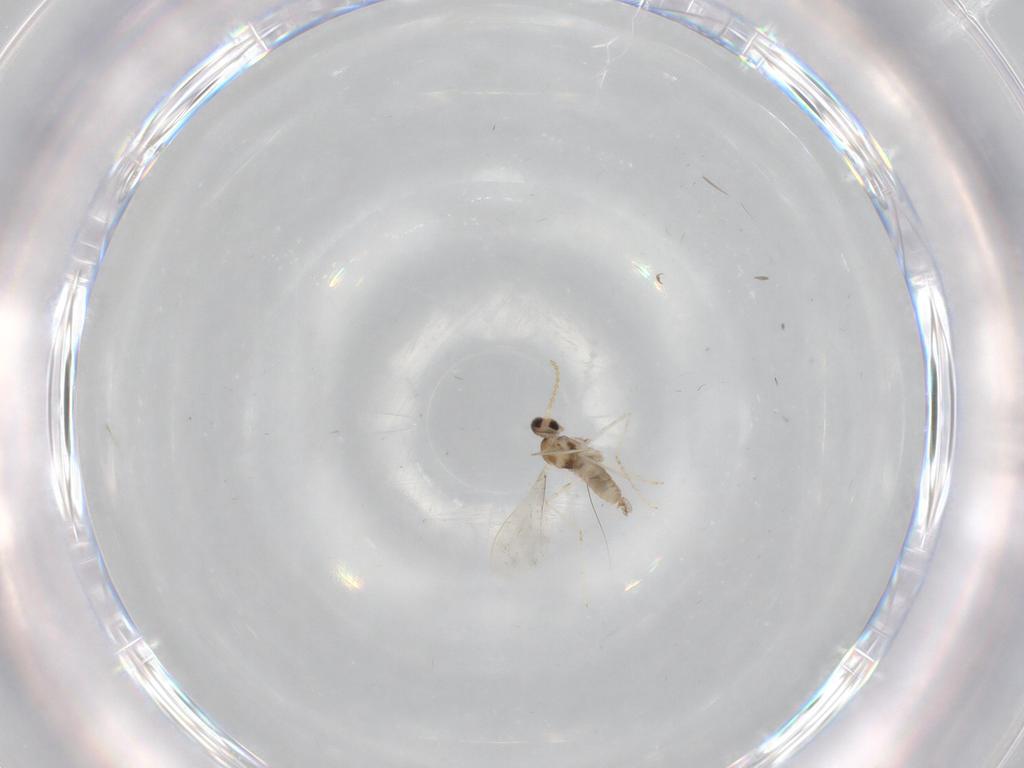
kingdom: Animalia
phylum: Arthropoda
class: Insecta
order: Diptera
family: Cecidomyiidae
